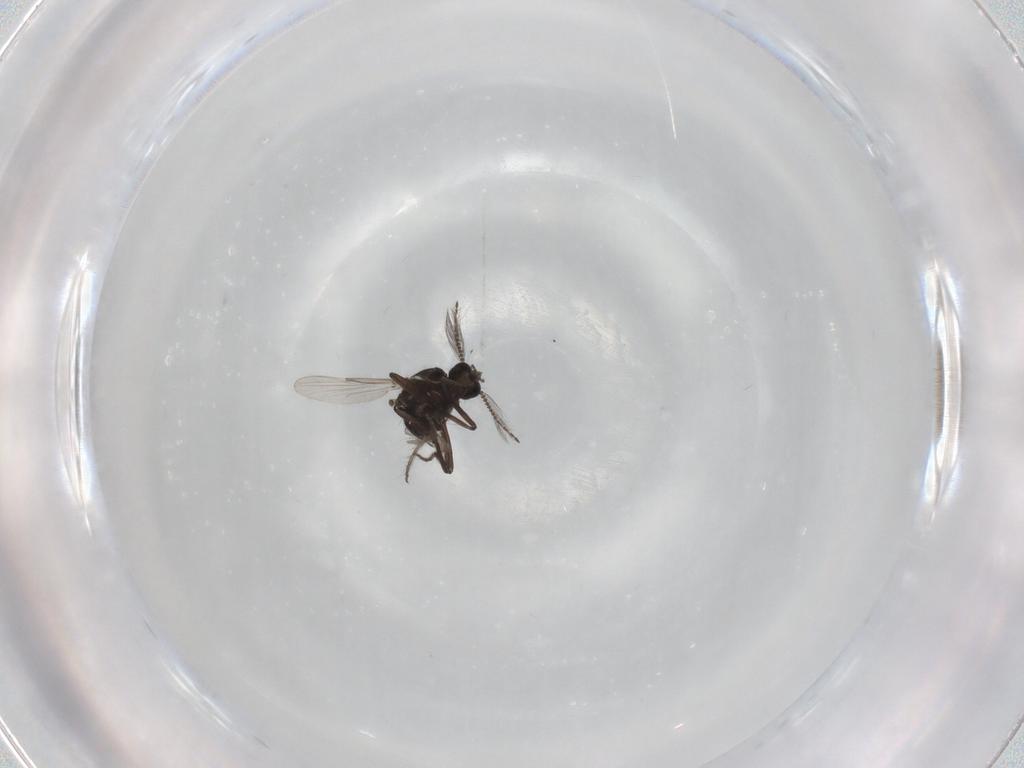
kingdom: Animalia
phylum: Arthropoda
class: Insecta
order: Diptera
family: Ceratopogonidae
